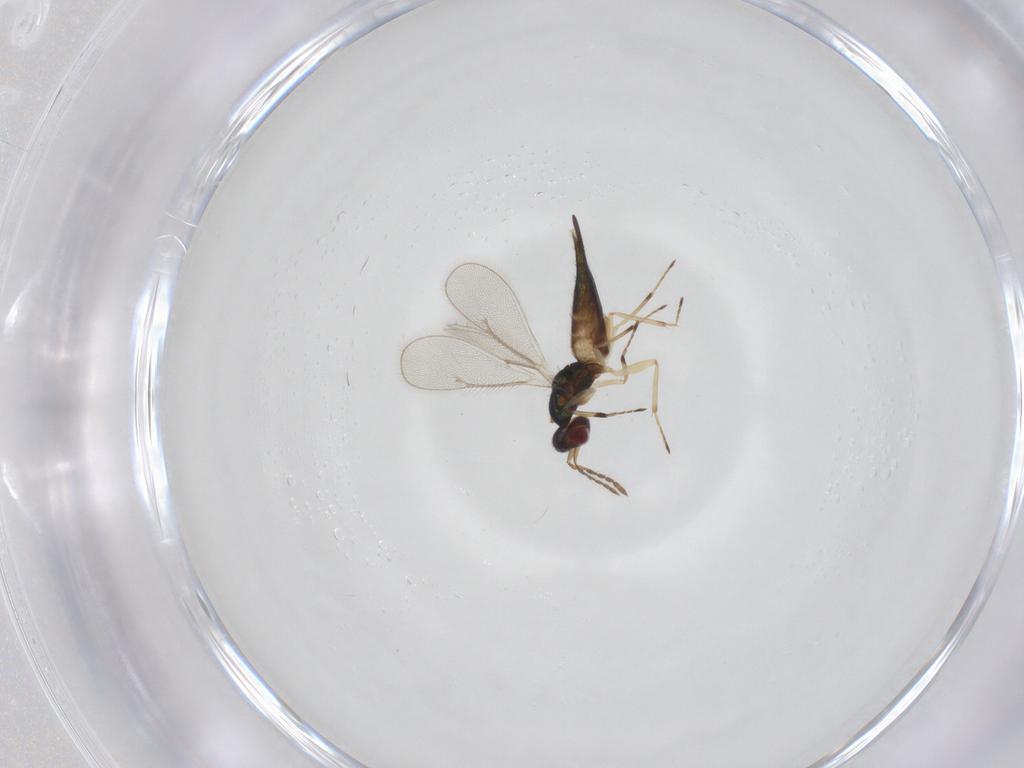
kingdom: Animalia
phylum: Arthropoda
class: Insecta
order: Hymenoptera
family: Eulophidae
